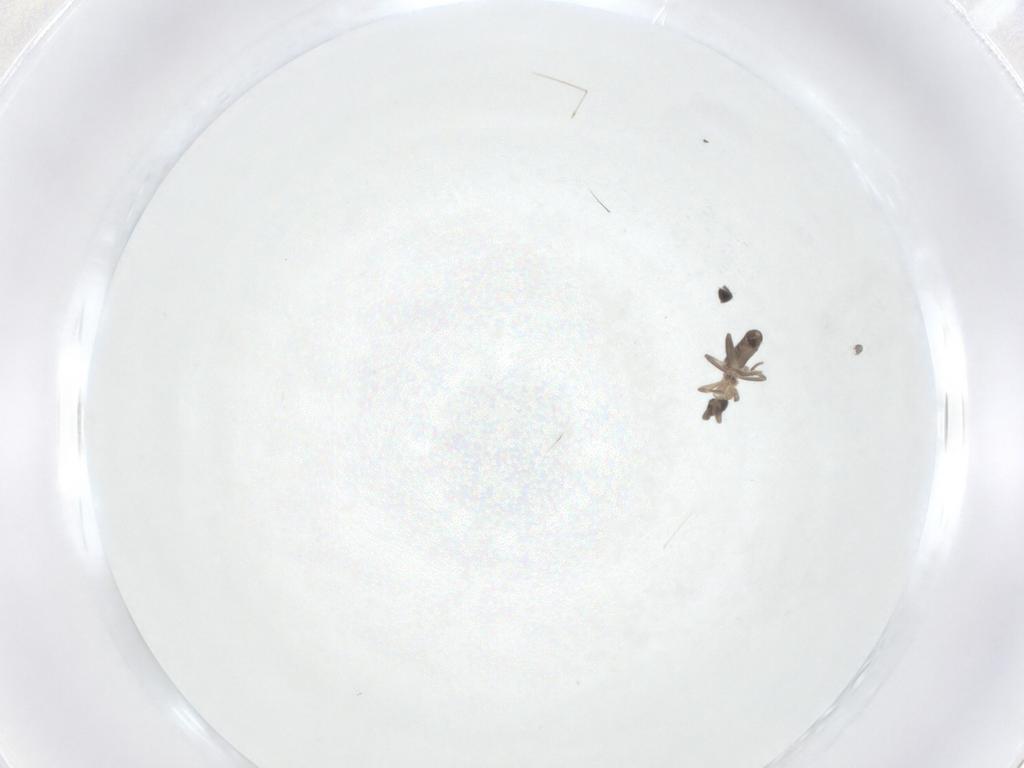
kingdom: Animalia
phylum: Arthropoda
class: Insecta
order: Diptera
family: Cecidomyiidae
